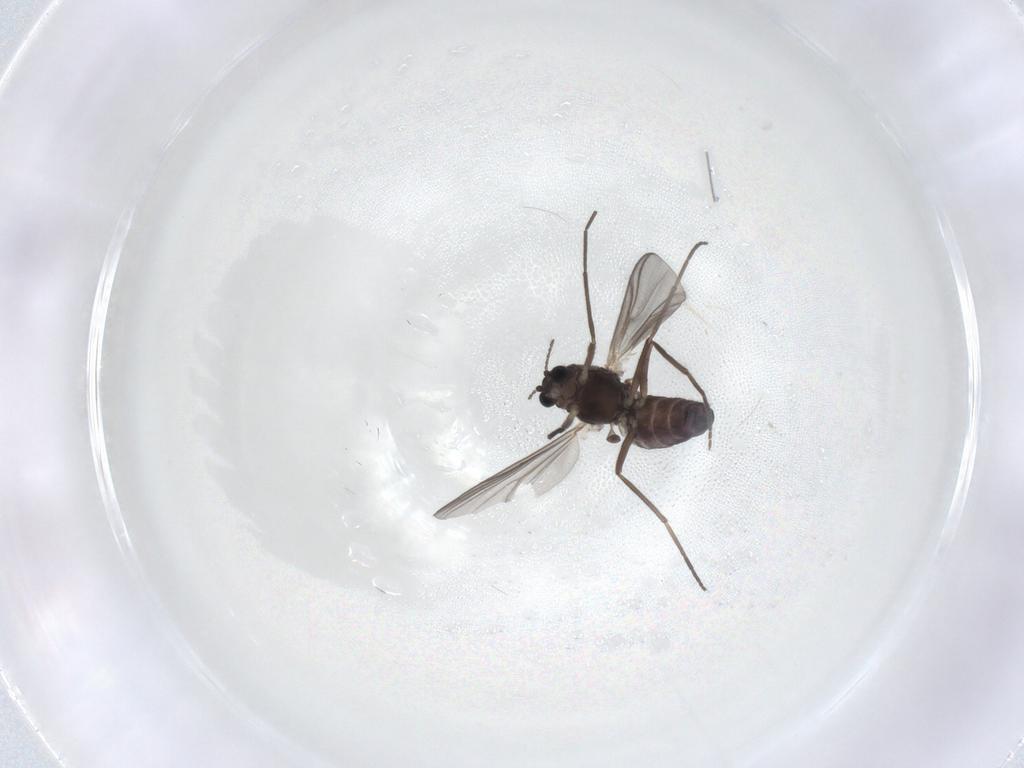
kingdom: Animalia
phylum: Arthropoda
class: Insecta
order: Diptera
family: Chironomidae
